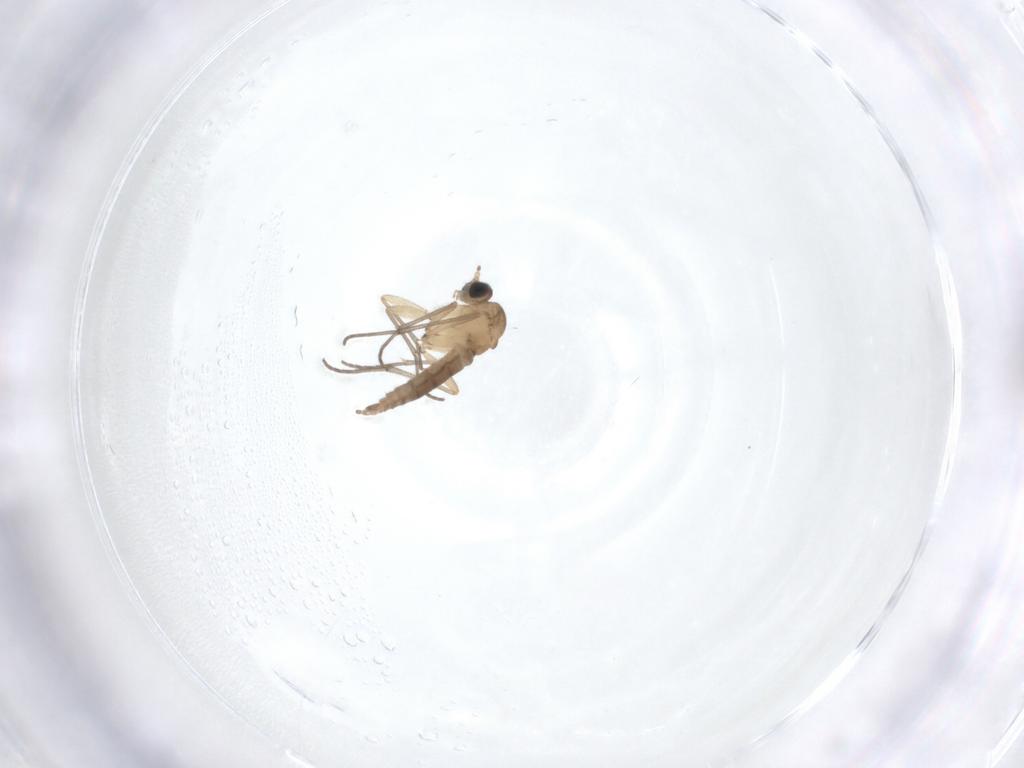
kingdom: Animalia
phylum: Arthropoda
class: Insecta
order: Diptera
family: Sciaridae
